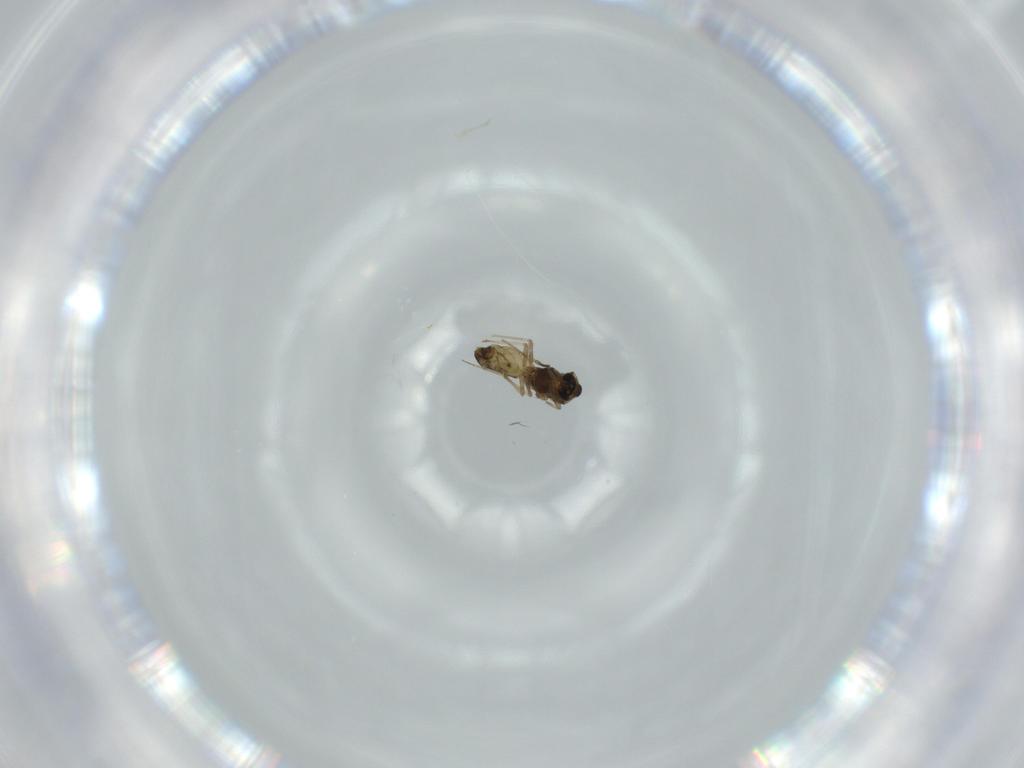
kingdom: Animalia
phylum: Arthropoda
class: Insecta
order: Diptera
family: Chironomidae
